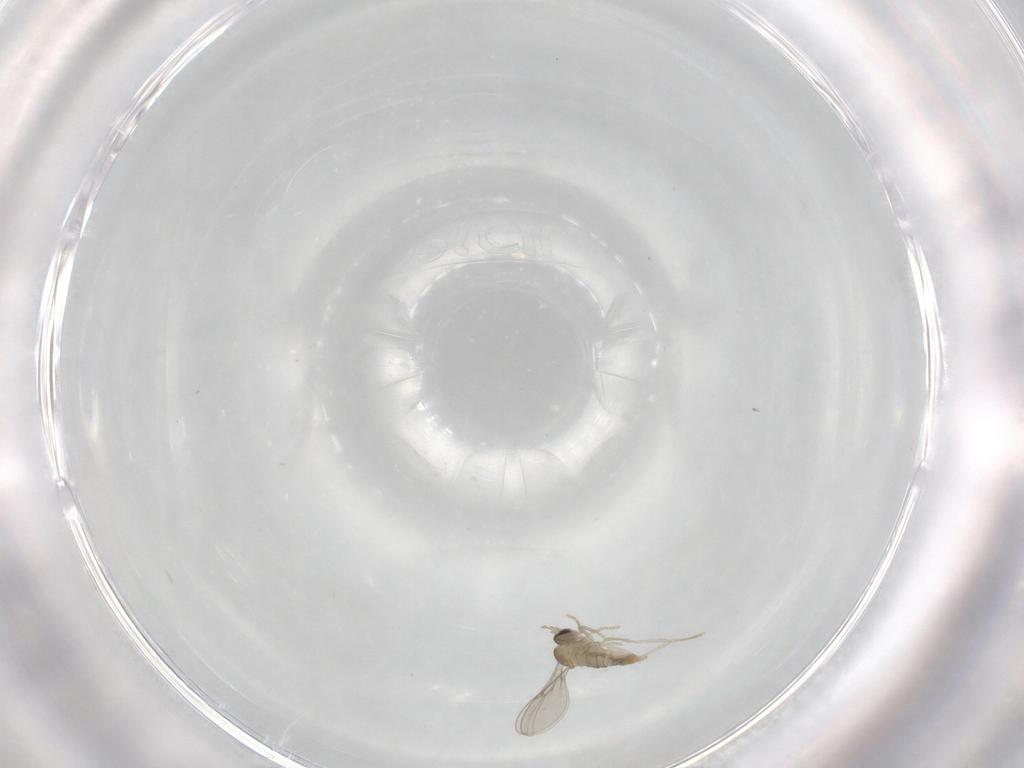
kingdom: Animalia
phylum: Arthropoda
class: Insecta
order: Diptera
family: Cecidomyiidae
